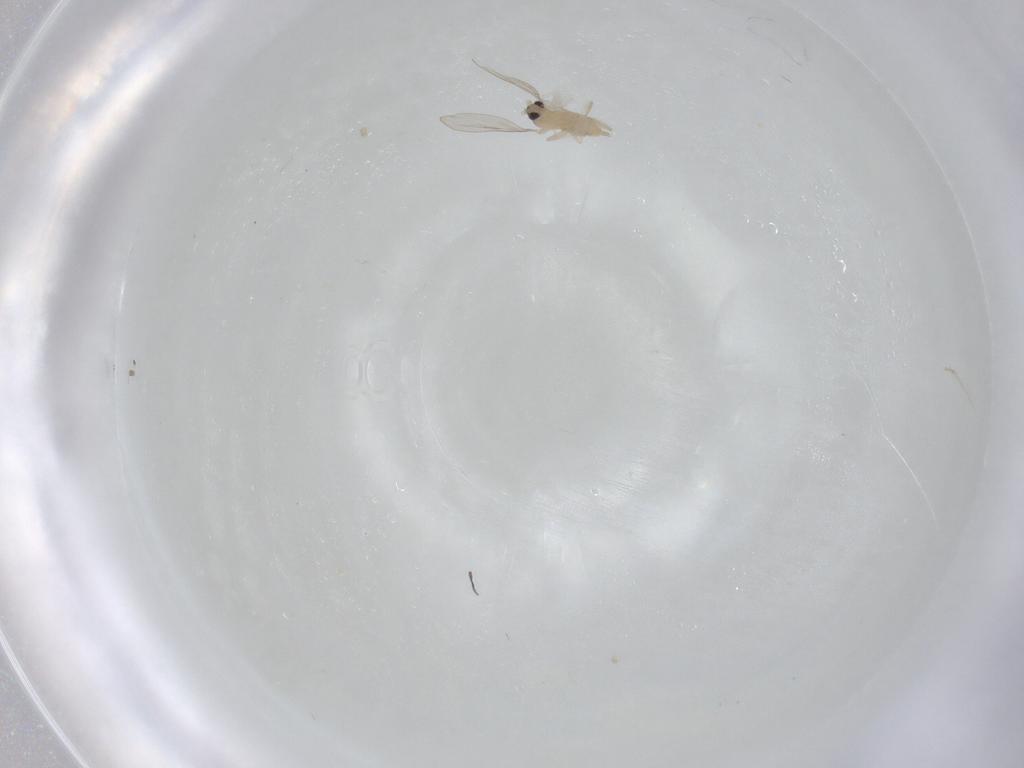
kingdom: Animalia
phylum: Arthropoda
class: Insecta
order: Diptera
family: Cecidomyiidae
